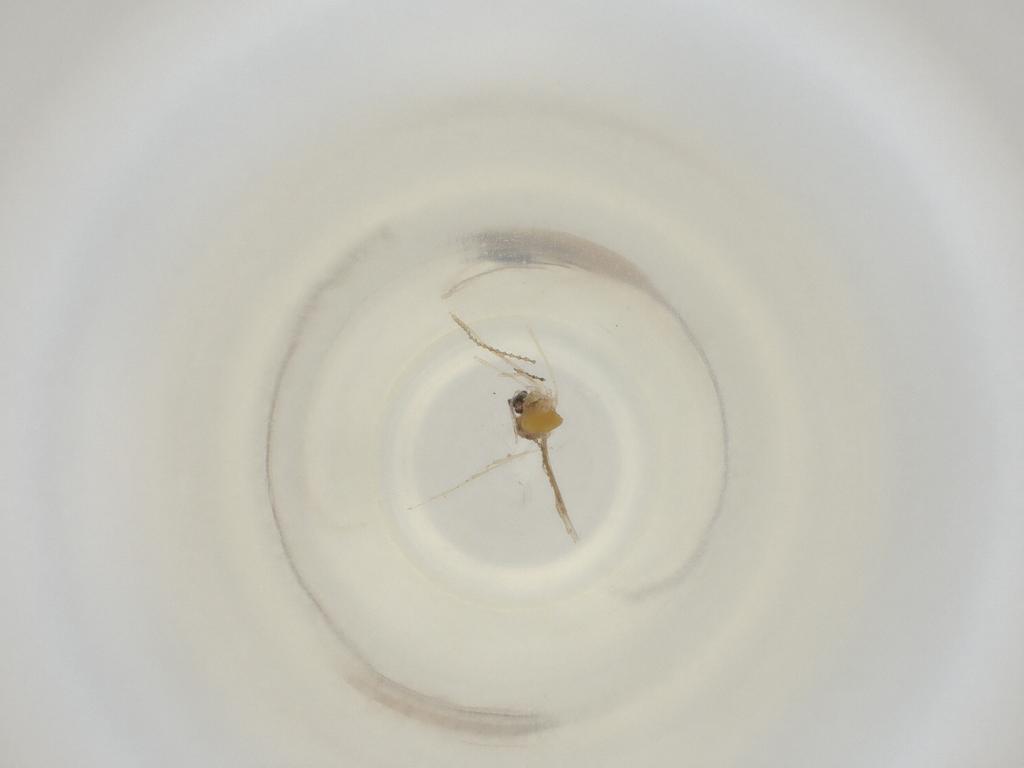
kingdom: Animalia
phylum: Arthropoda
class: Insecta
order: Diptera
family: Cecidomyiidae
